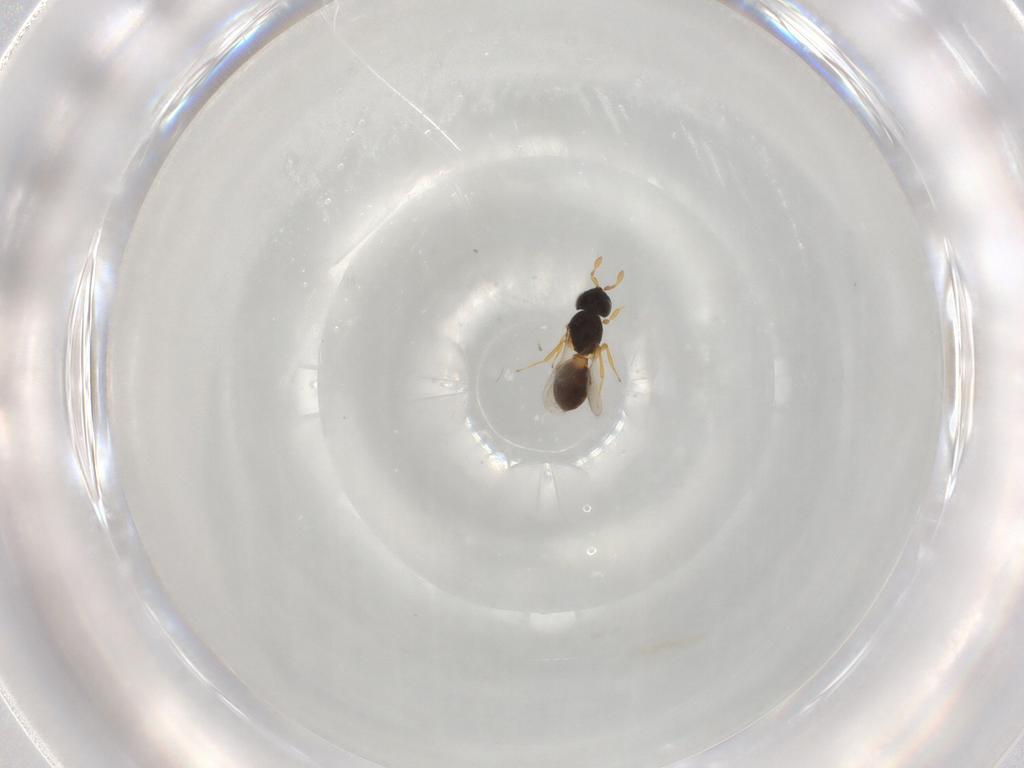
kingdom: Animalia
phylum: Arthropoda
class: Insecta
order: Hymenoptera
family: Scelionidae
